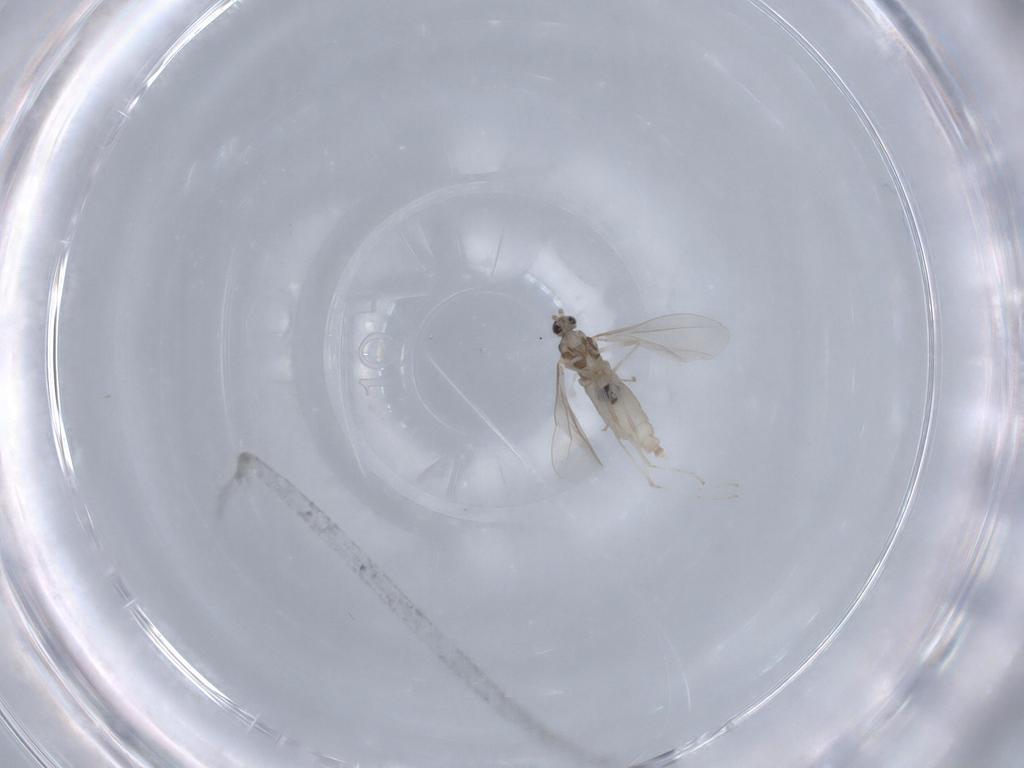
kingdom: Animalia
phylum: Arthropoda
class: Insecta
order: Diptera
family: Cecidomyiidae
